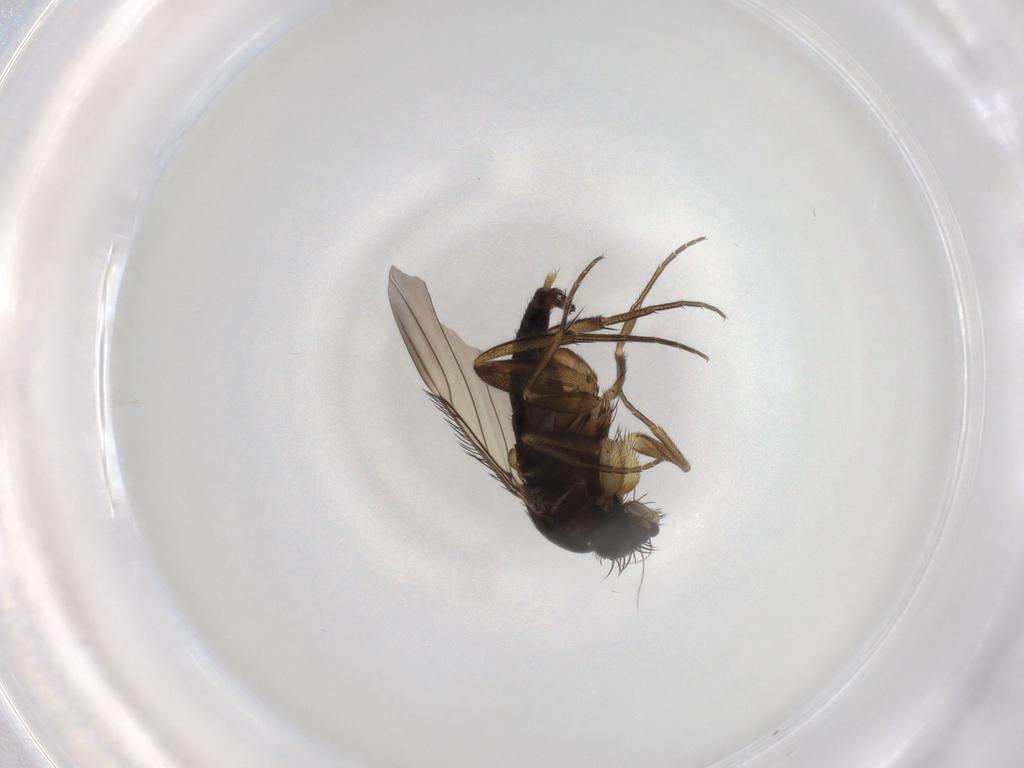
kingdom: Animalia
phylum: Arthropoda
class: Insecta
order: Diptera
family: Phoridae
